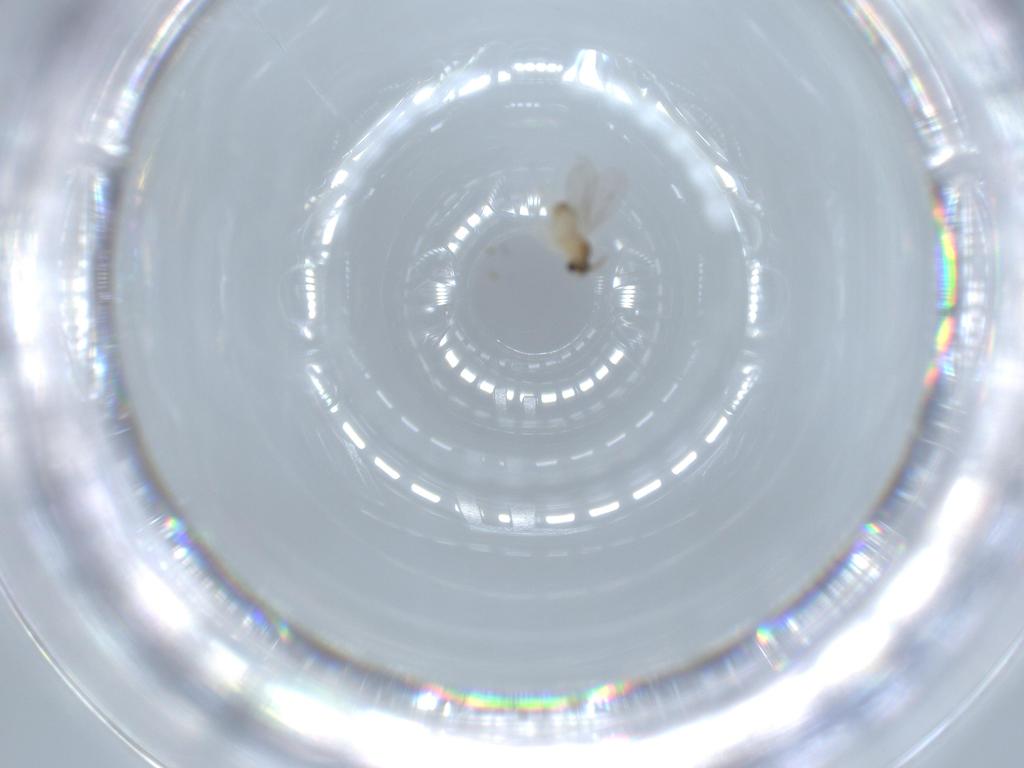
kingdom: Animalia
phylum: Arthropoda
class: Insecta
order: Diptera
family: Cecidomyiidae
